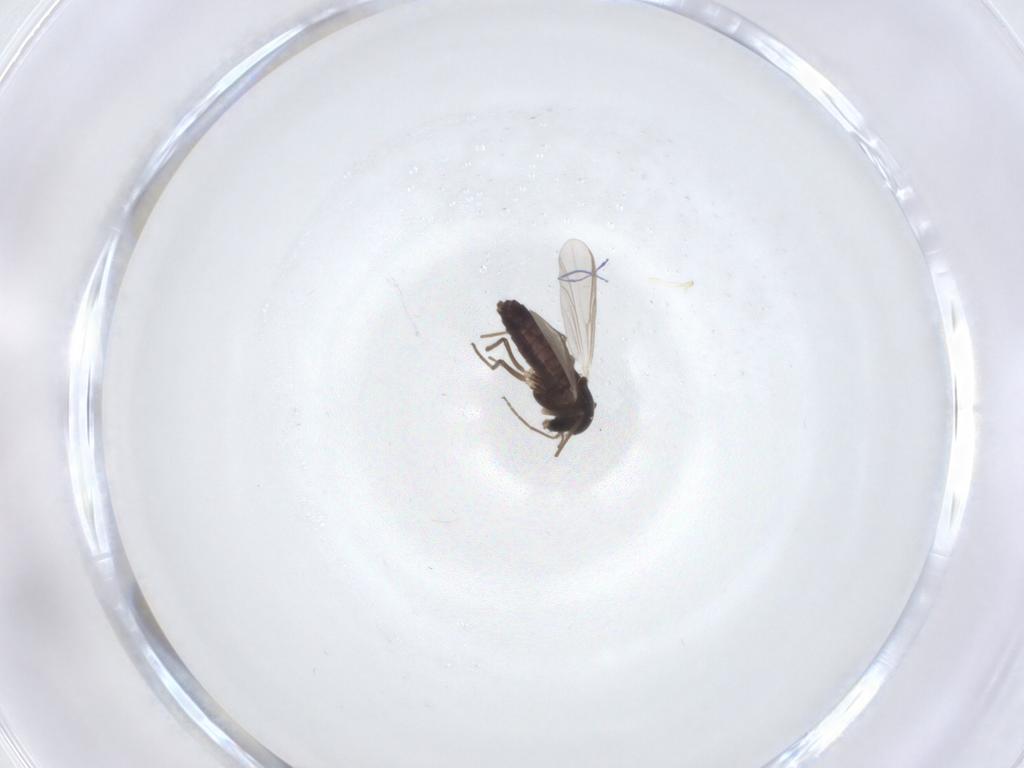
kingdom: Animalia
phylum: Arthropoda
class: Insecta
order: Diptera
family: Chironomidae
